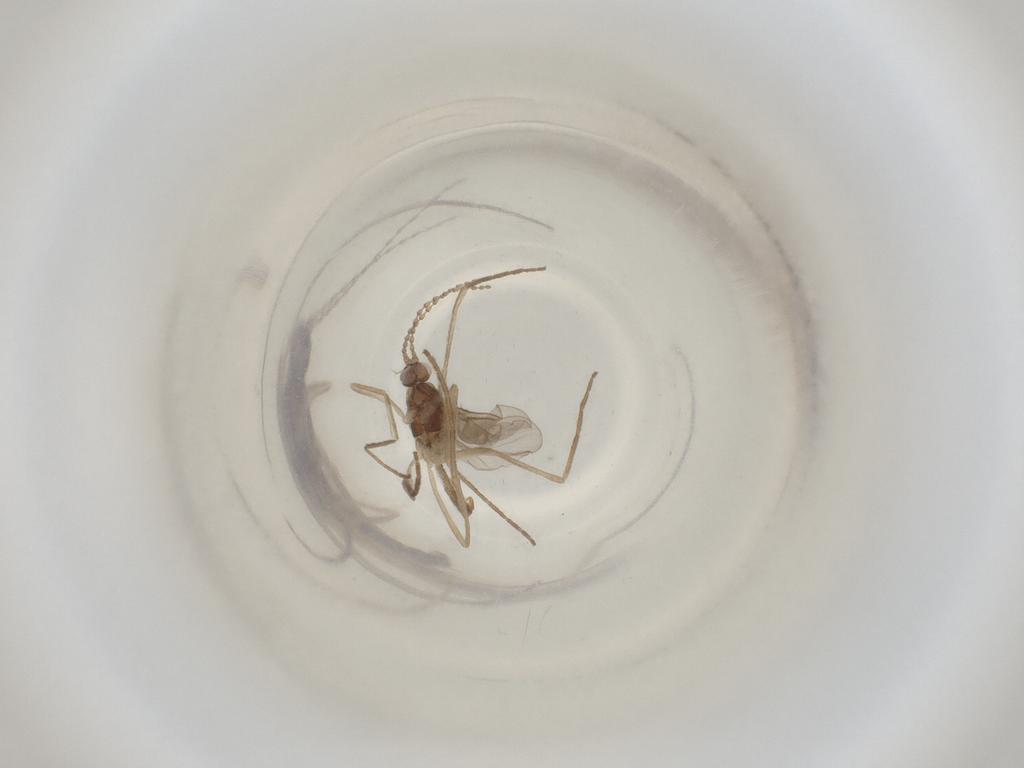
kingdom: Animalia
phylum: Arthropoda
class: Insecta
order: Diptera
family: Cecidomyiidae
